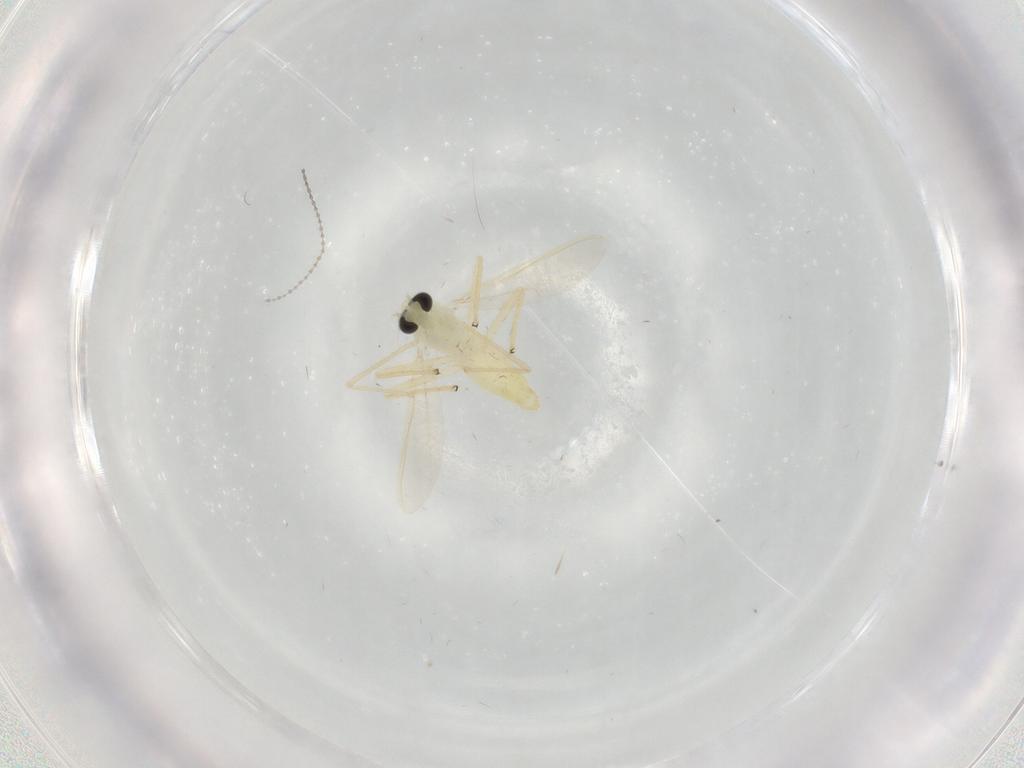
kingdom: Animalia
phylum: Arthropoda
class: Insecta
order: Diptera
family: Chironomidae
